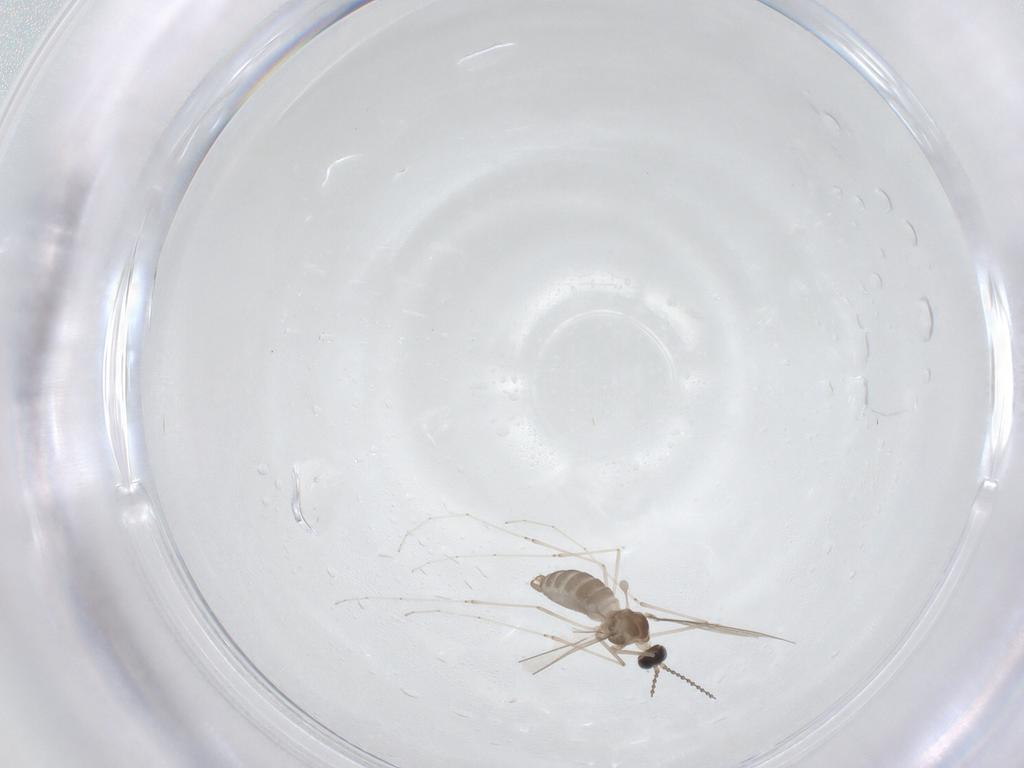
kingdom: Animalia
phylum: Arthropoda
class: Insecta
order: Diptera
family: Cecidomyiidae
